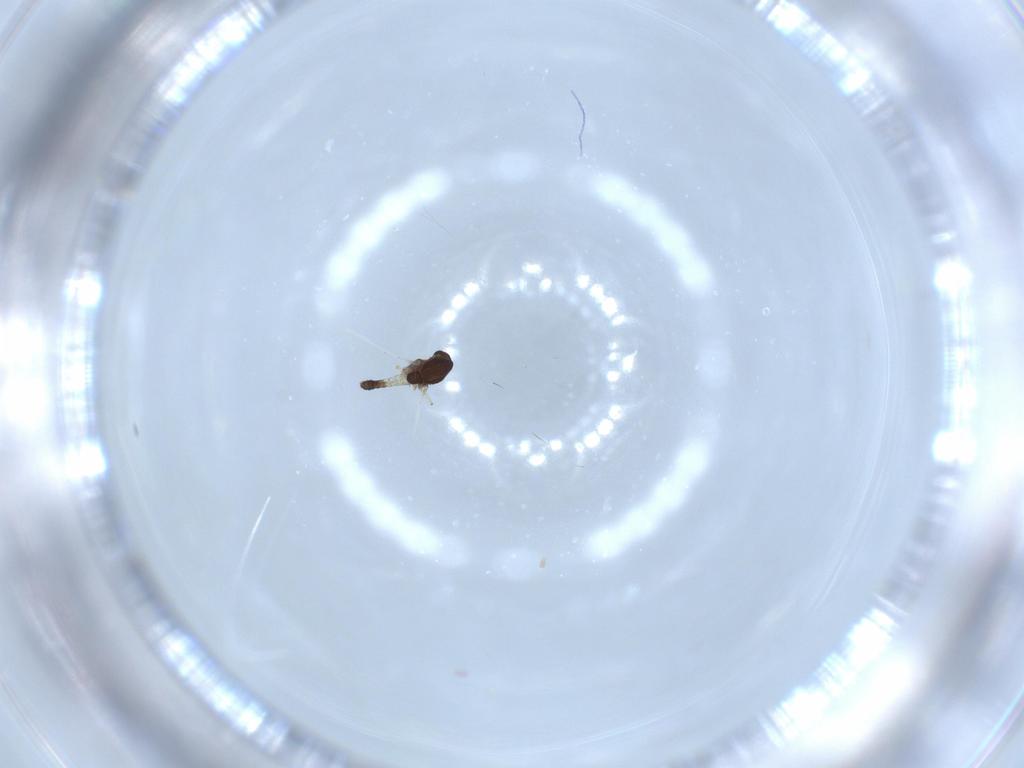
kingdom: Animalia
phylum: Arthropoda
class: Insecta
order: Diptera
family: Chironomidae
